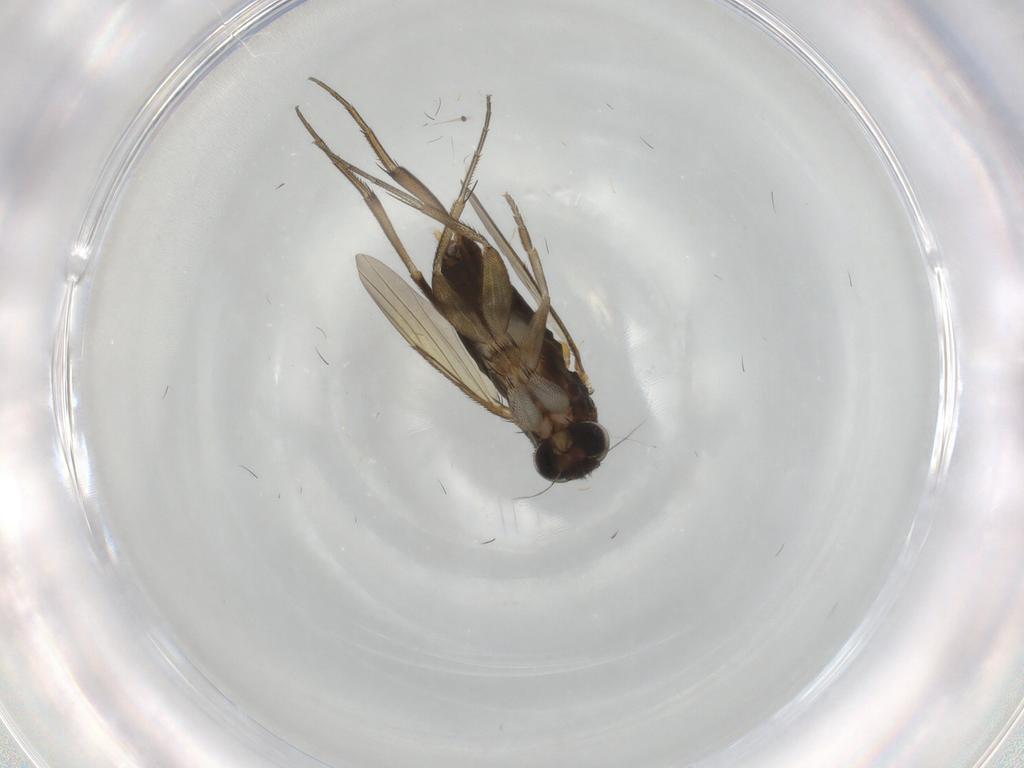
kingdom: Animalia
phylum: Arthropoda
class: Insecta
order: Diptera
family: Phoridae
